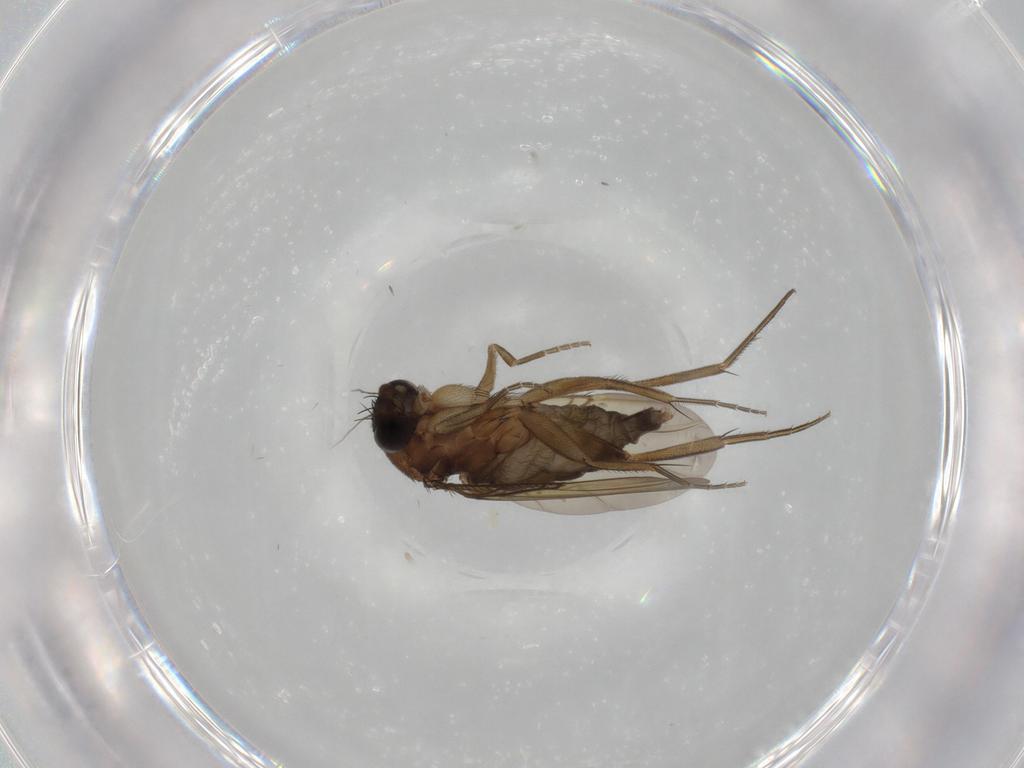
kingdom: Animalia
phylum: Arthropoda
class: Insecta
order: Diptera
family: Phoridae
